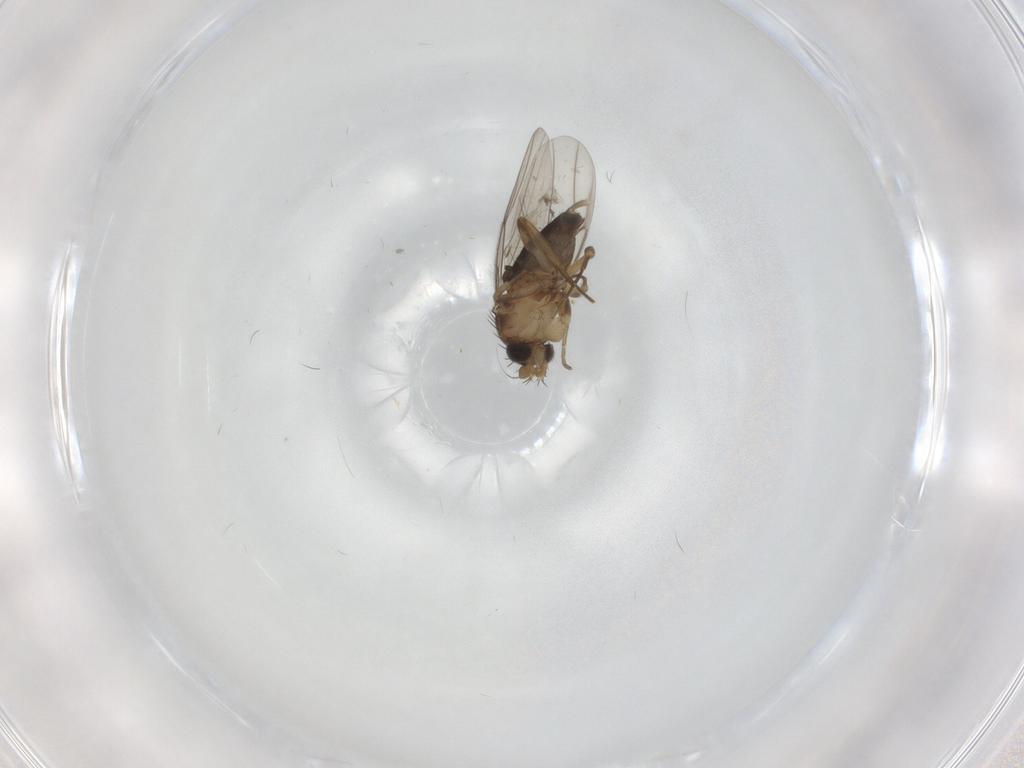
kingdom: Animalia
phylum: Arthropoda
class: Insecta
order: Diptera
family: Phoridae
